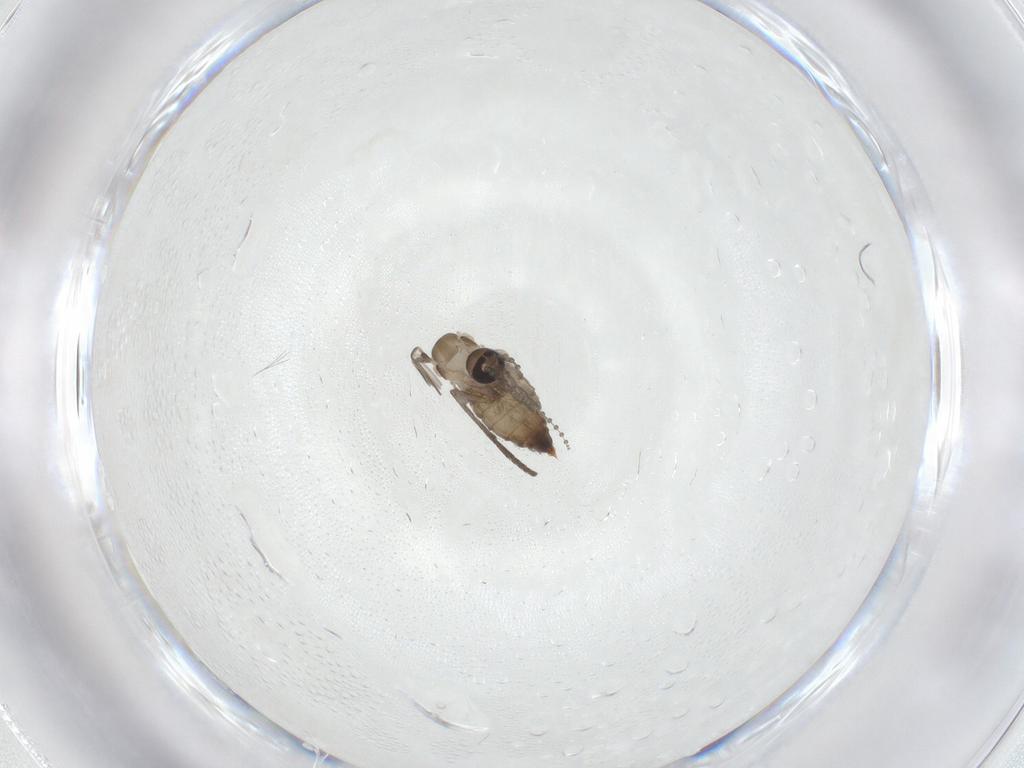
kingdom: Animalia
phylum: Arthropoda
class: Insecta
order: Diptera
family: Psychodidae
